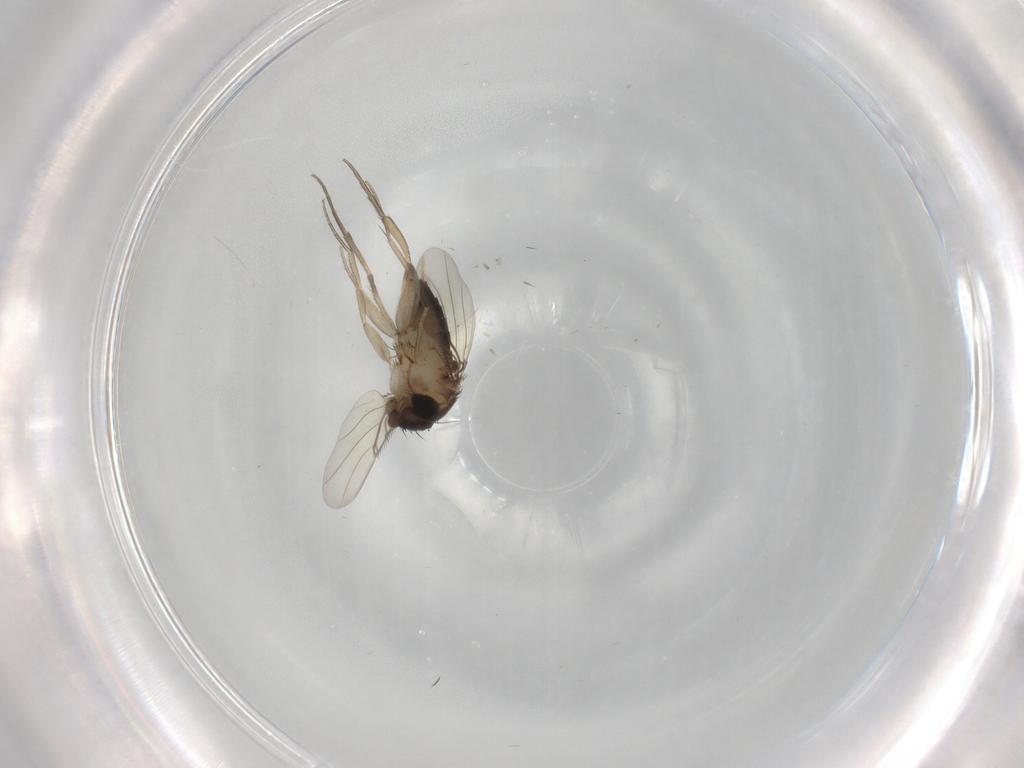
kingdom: Animalia
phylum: Arthropoda
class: Insecta
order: Diptera
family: Phoridae
